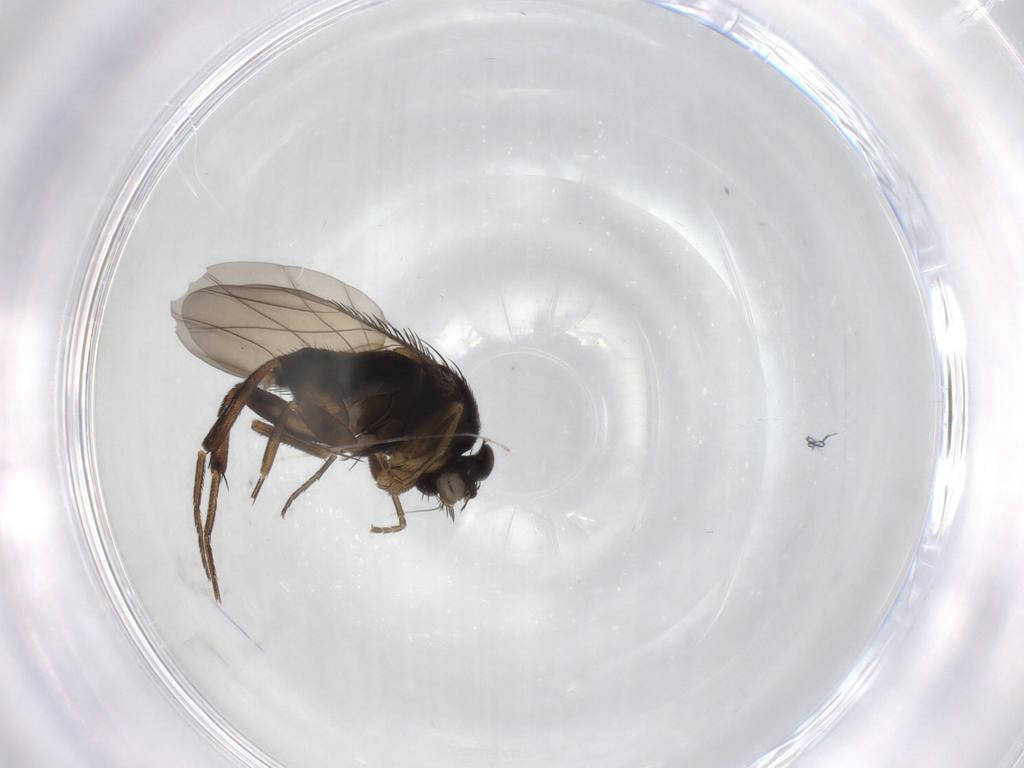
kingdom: Animalia
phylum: Arthropoda
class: Insecta
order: Diptera
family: Phoridae
